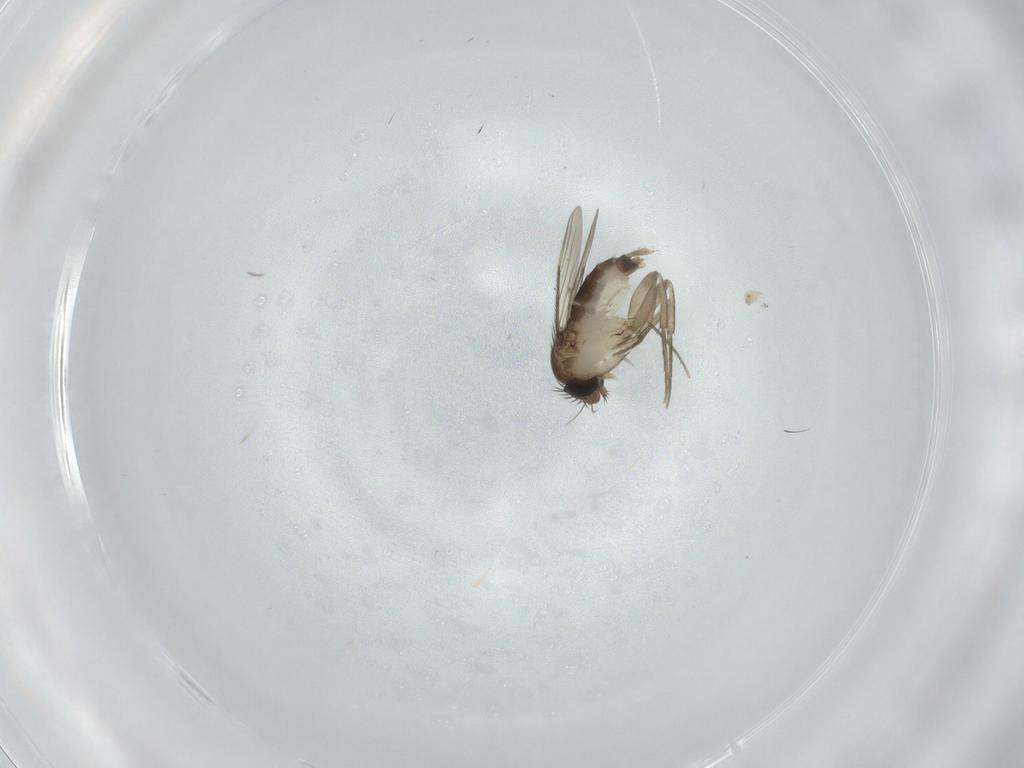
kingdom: Animalia
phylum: Arthropoda
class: Insecta
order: Diptera
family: Phoridae
